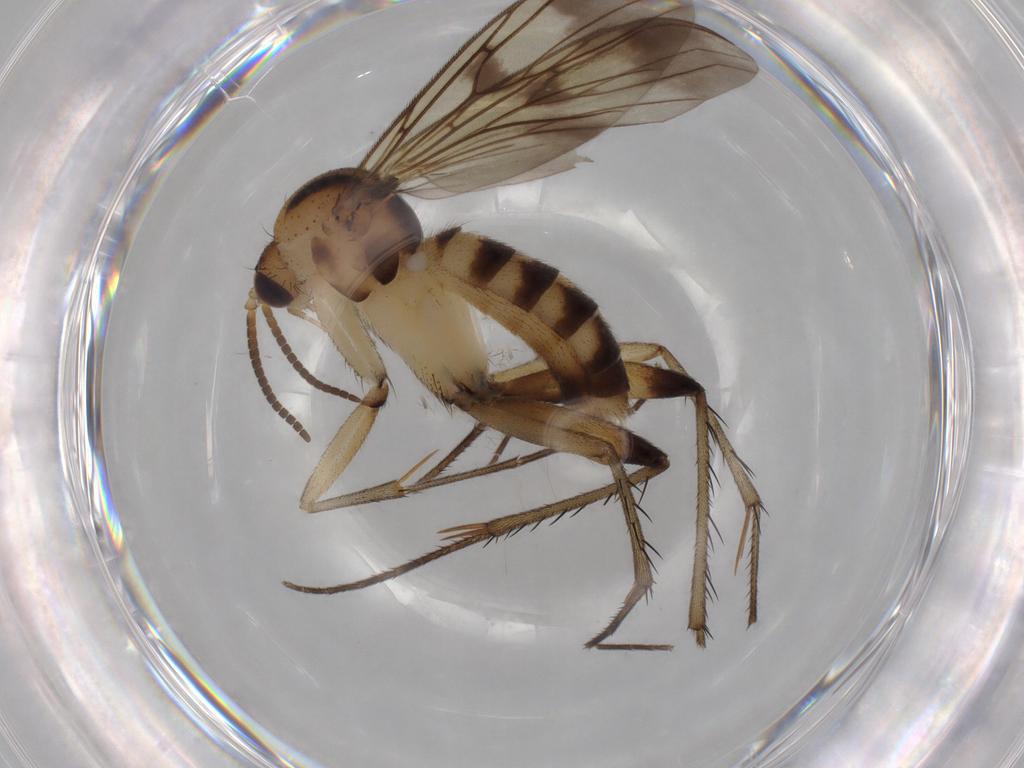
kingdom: Animalia
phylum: Arthropoda
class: Insecta
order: Diptera
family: Mycetophilidae
